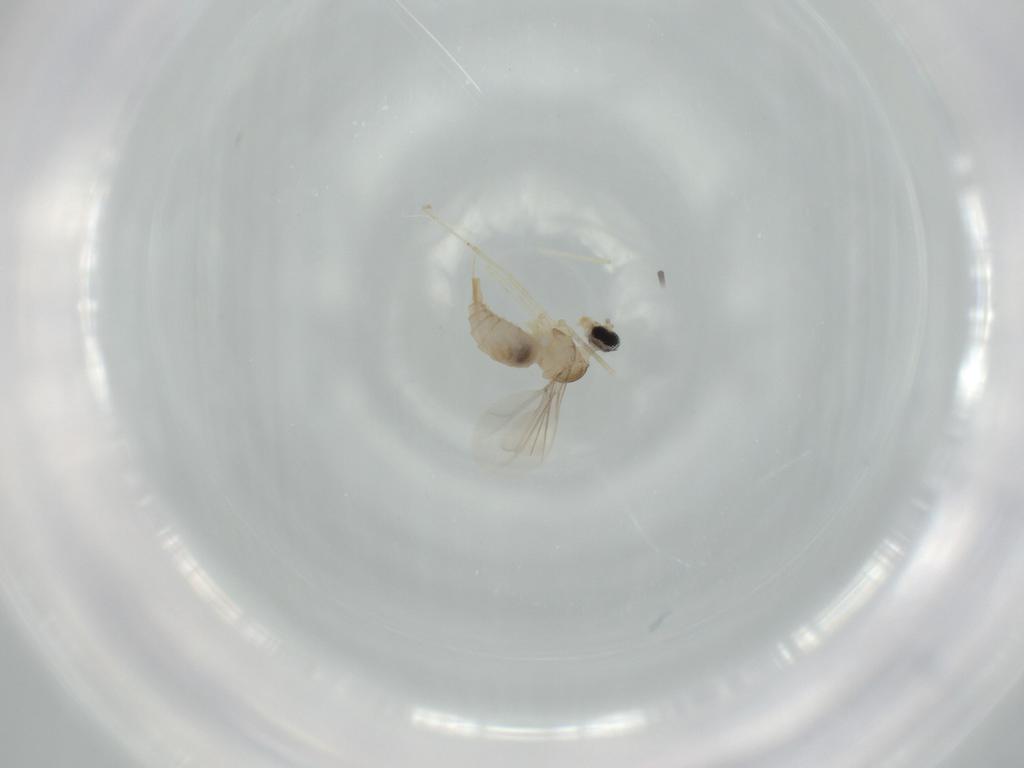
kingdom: Animalia
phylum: Arthropoda
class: Insecta
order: Diptera
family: Cecidomyiidae
